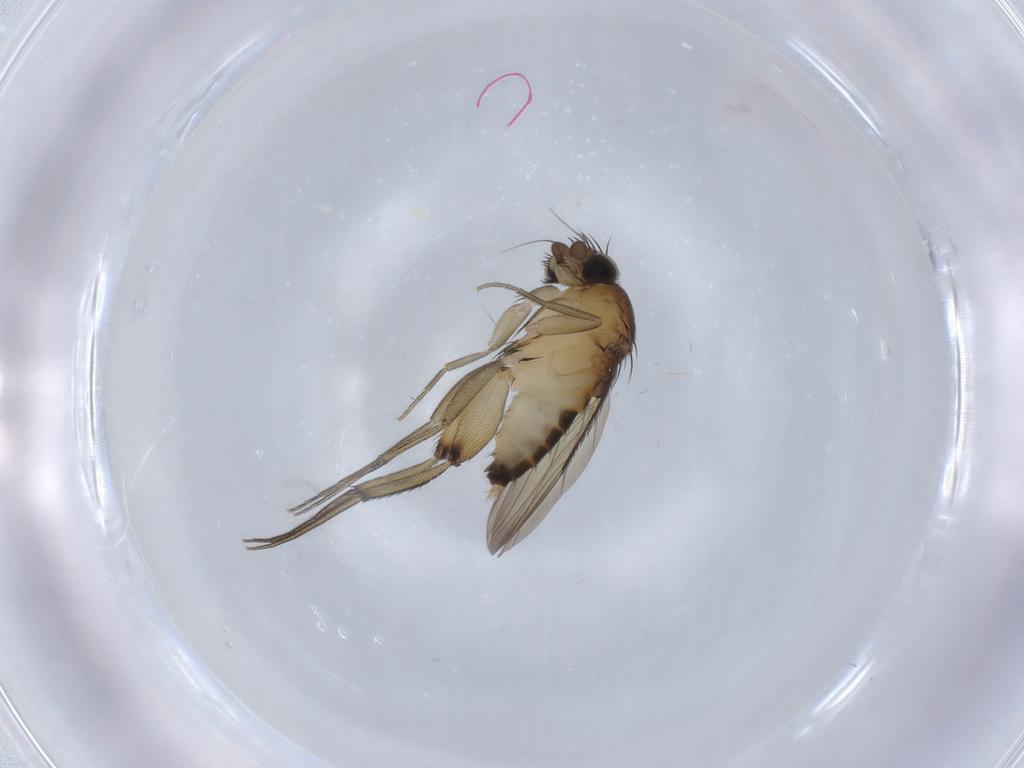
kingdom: Animalia
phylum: Arthropoda
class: Insecta
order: Diptera
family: Phoridae
